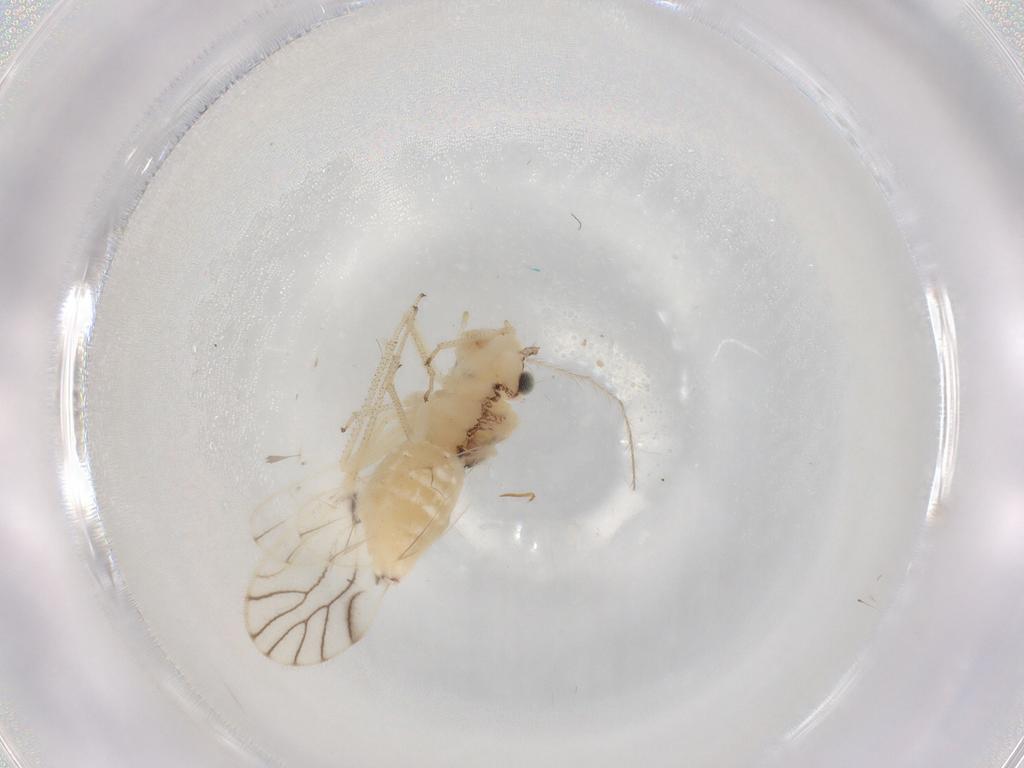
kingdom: Animalia
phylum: Arthropoda
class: Insecta
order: Psocodea
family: Philotarsidae
